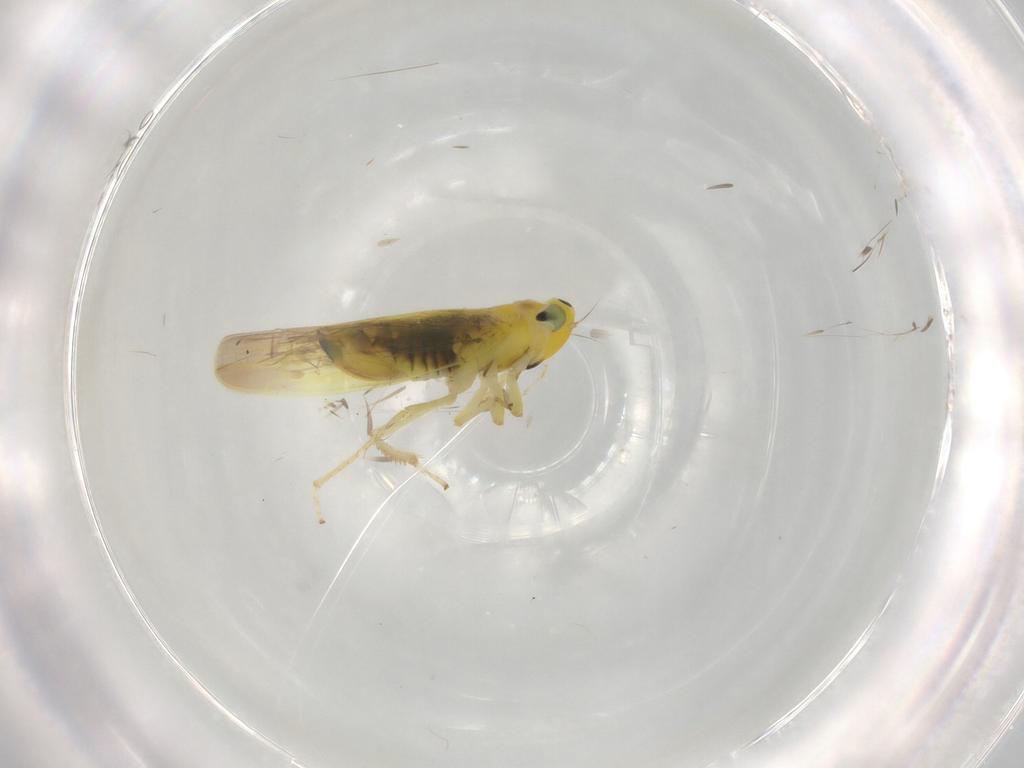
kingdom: Animalia
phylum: Arthropoda
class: Insecta
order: Hemiptera
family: Cicadellidae
